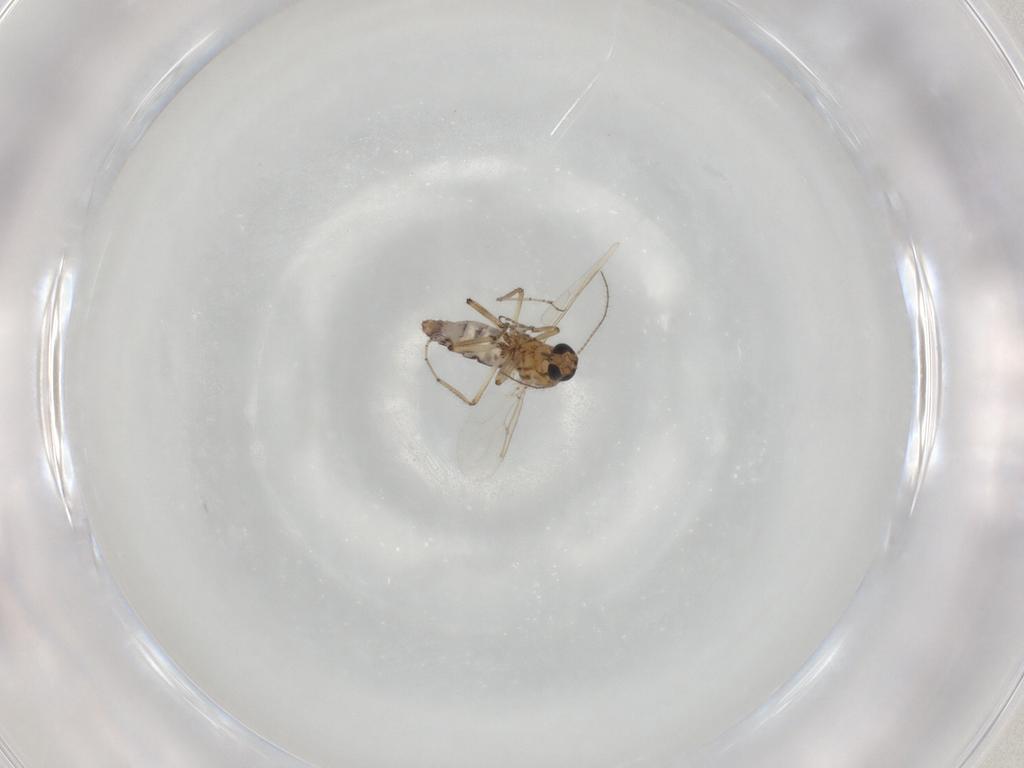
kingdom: Animalia
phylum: Arthropoda
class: Insecta
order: Diptera
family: Ceratopogonidae
